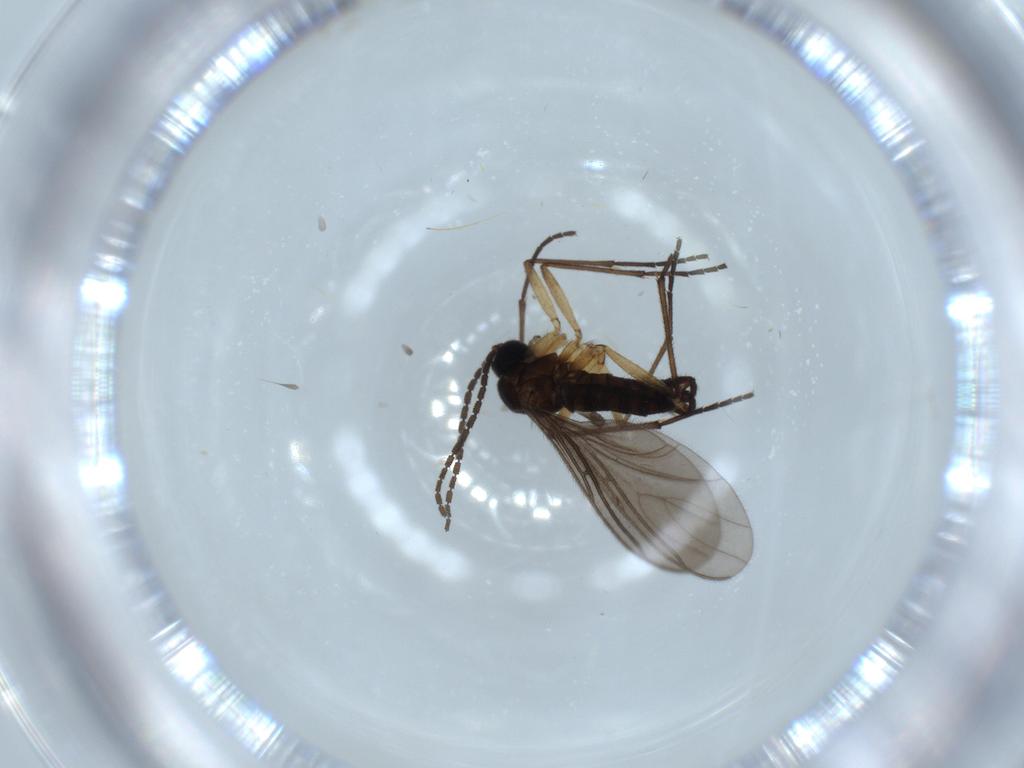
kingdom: Animalia
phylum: Arthropoda
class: Insecta
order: Diptera
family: Sciaridae
